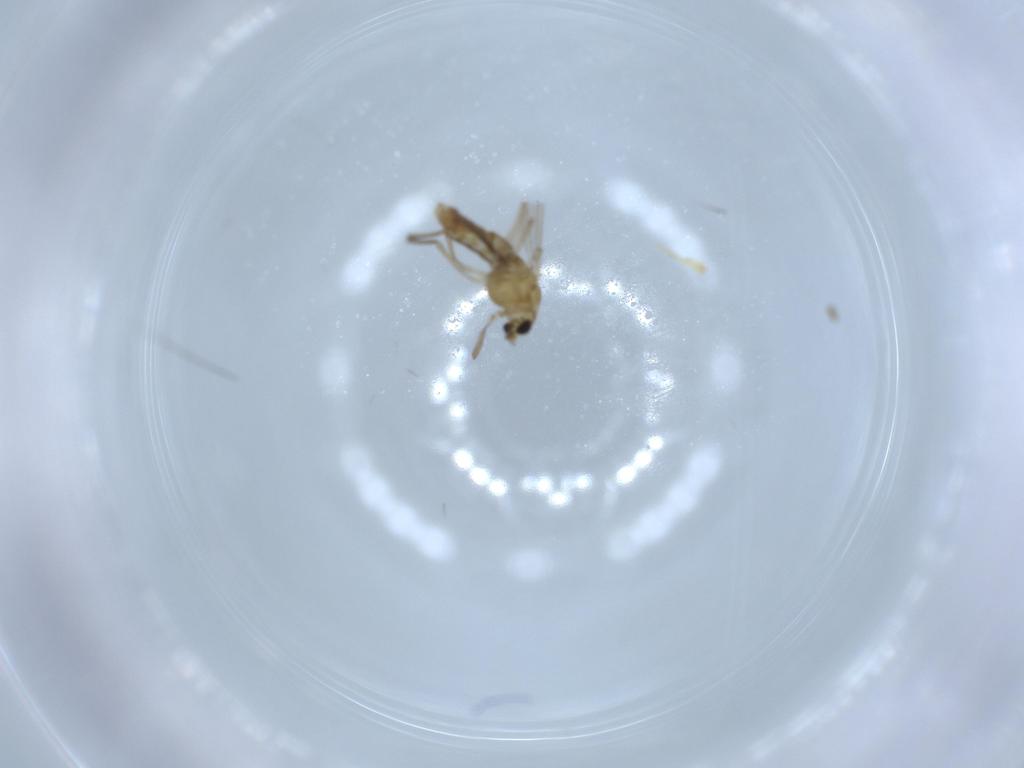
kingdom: Animalia
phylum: Arthropoda
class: Insecta
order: Diptera
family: Chironomidae
